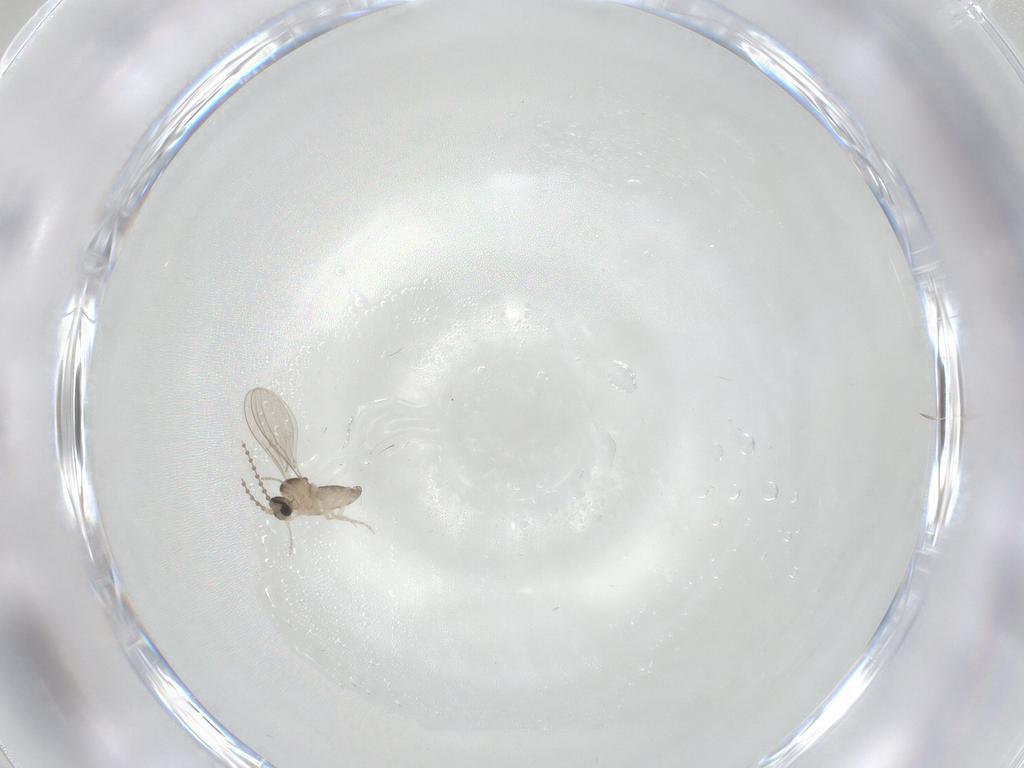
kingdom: Animalia
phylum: Arthropoda
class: Insecta
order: Diptera
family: Cecidomyiidae
